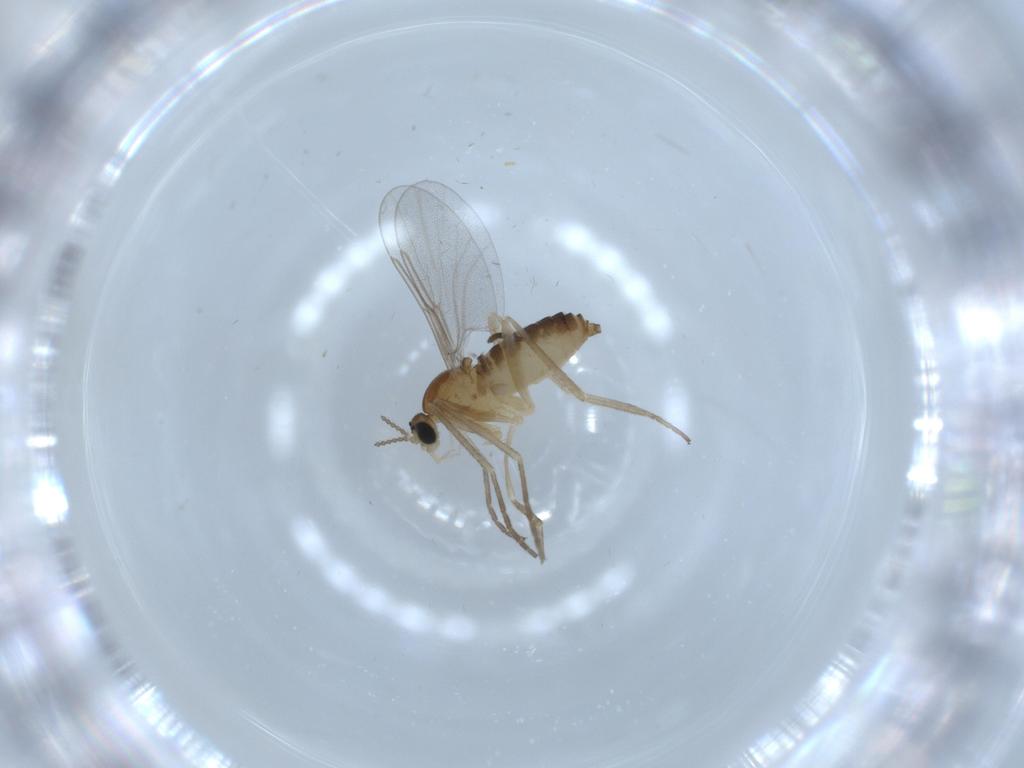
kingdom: Animalia
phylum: Arthropoda
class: Insecta
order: Diptera
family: Cecidomyiidae
